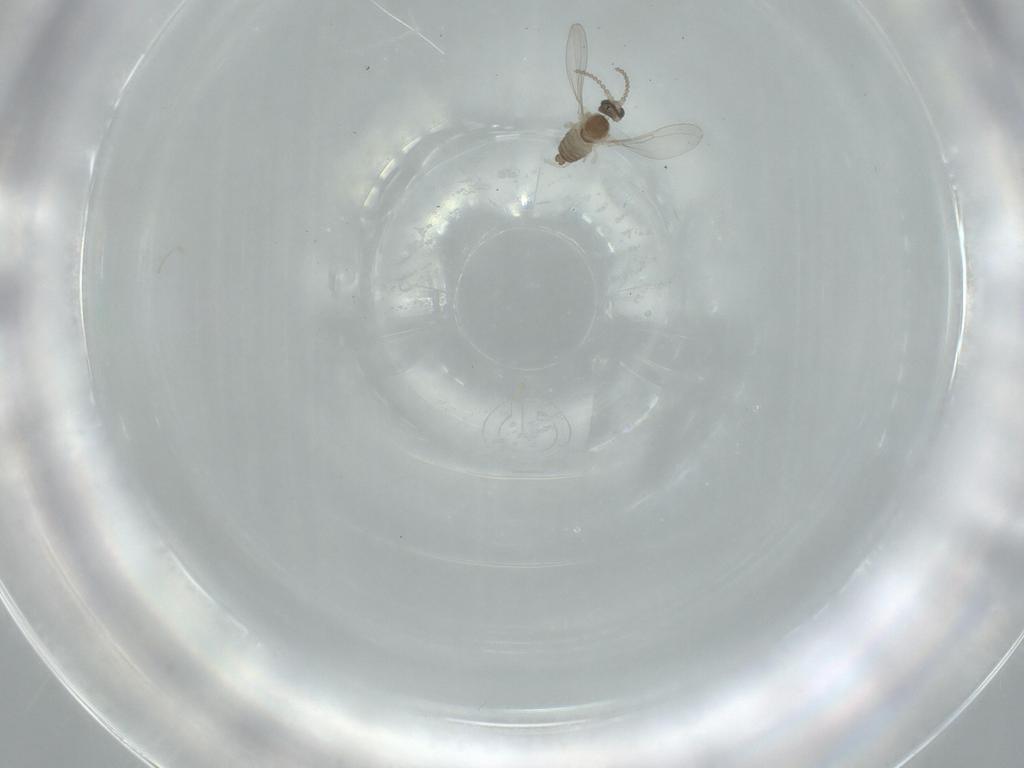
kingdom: Animalia
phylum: Arthropoda
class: Insecta
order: Diptera
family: Cecidomyiidae
